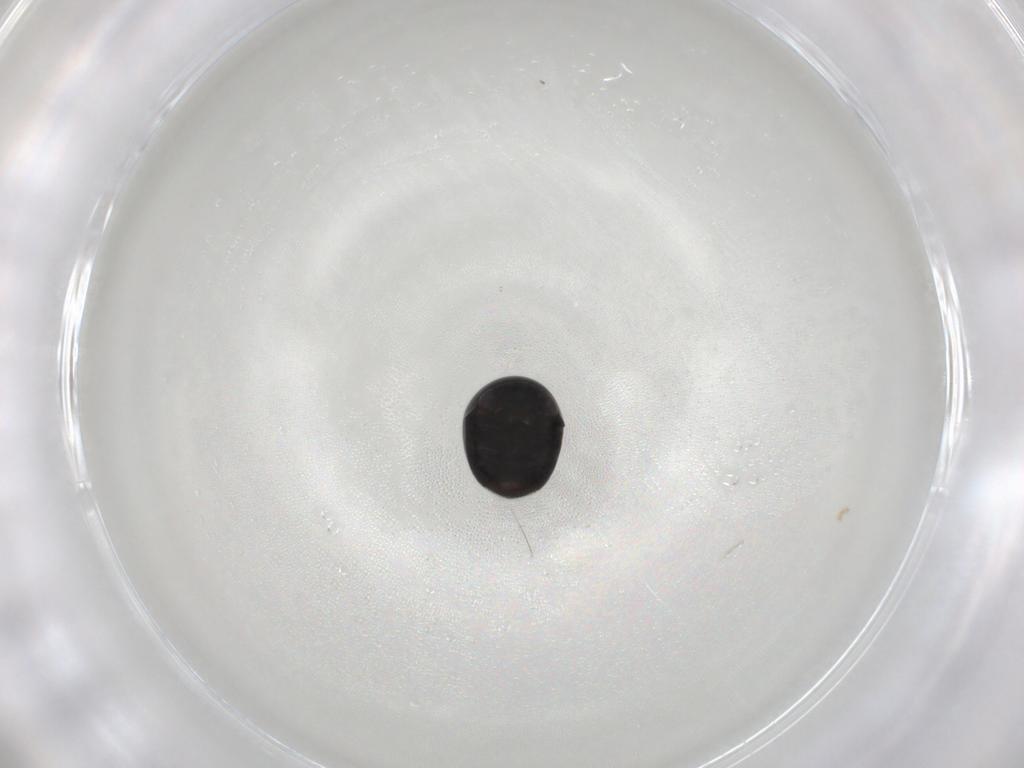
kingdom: Animalia
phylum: Arthropoda
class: Insecta
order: Coleoptera
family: Cybocephalidae
